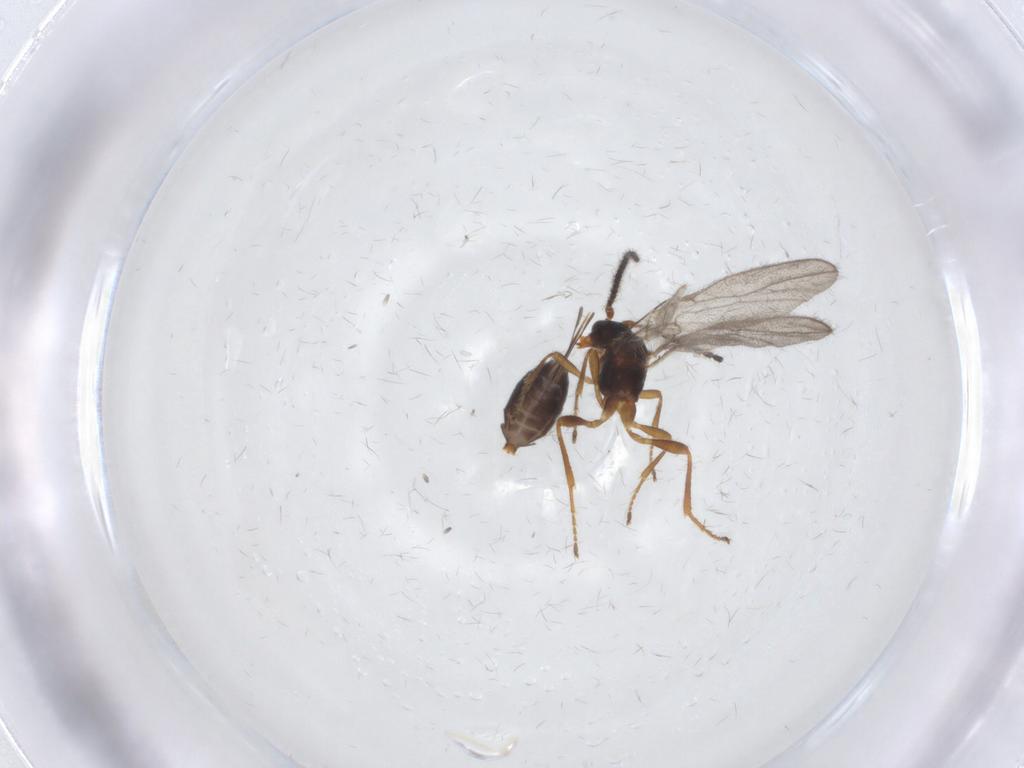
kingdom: Animalia
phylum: Arthropoda
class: Insecta
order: Hymenoptera
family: Braconidae
